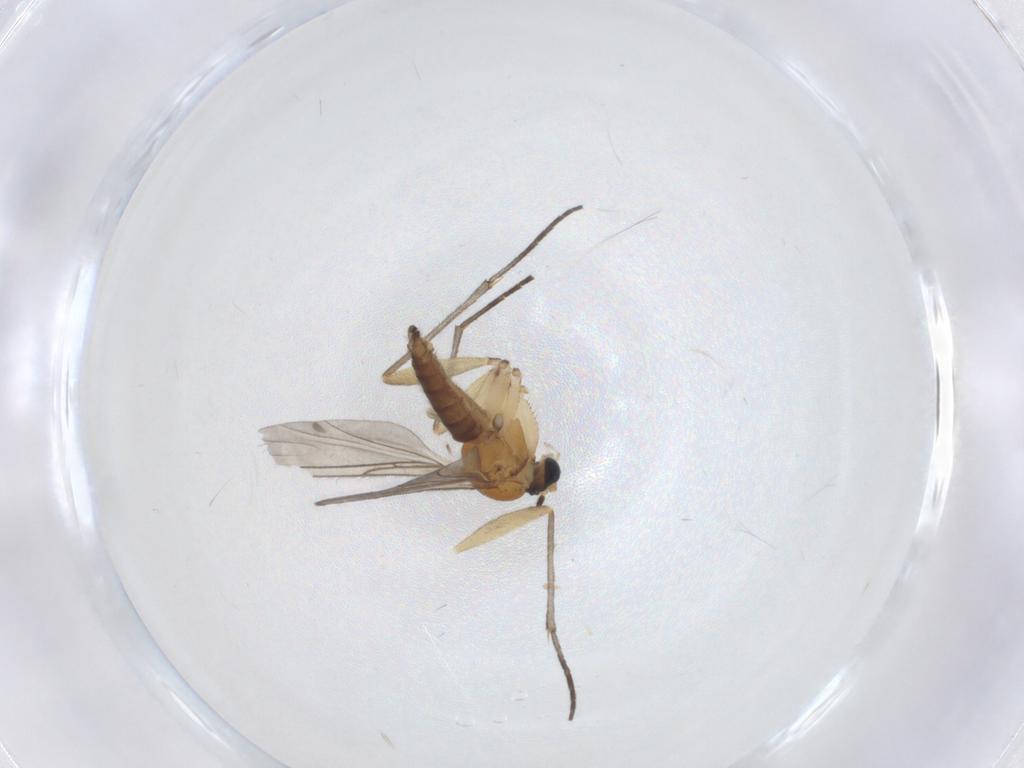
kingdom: Animalia
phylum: Arthropoda
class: Insecta
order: Diptera
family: Sciaridae
